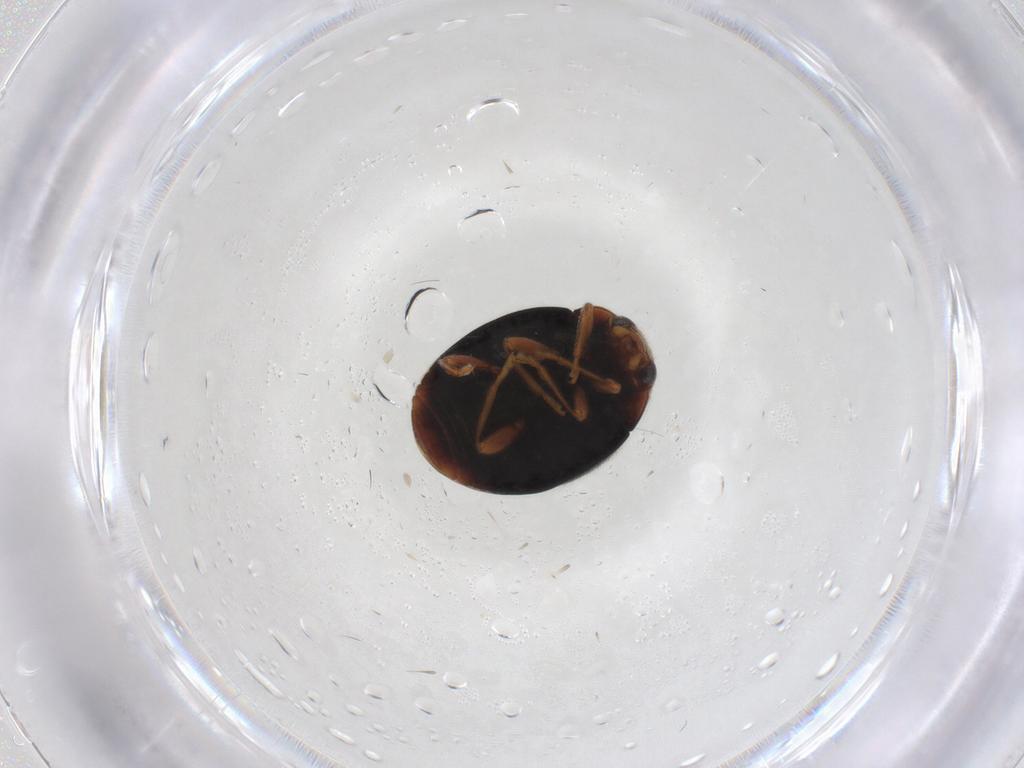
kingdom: Animalia
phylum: Arthropoda
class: Insecta
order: Coleoptera
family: Coccinellidae
